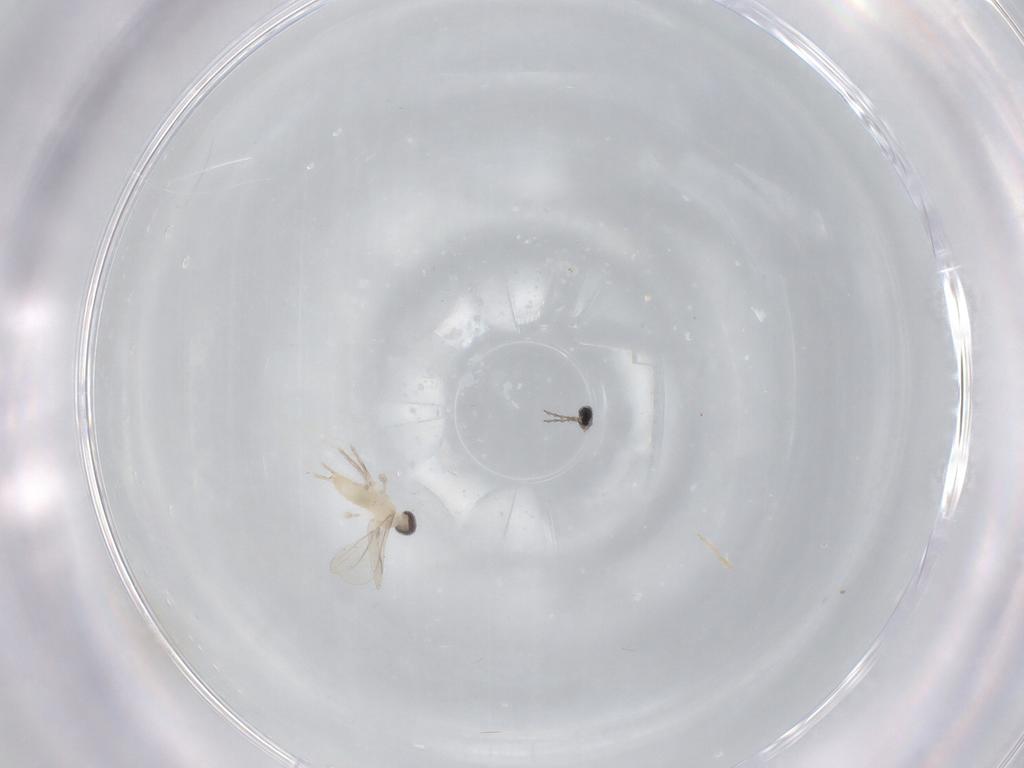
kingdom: Animalia
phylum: Arthropoda
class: Insecta
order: Diptera
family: Cecidomyiidae
